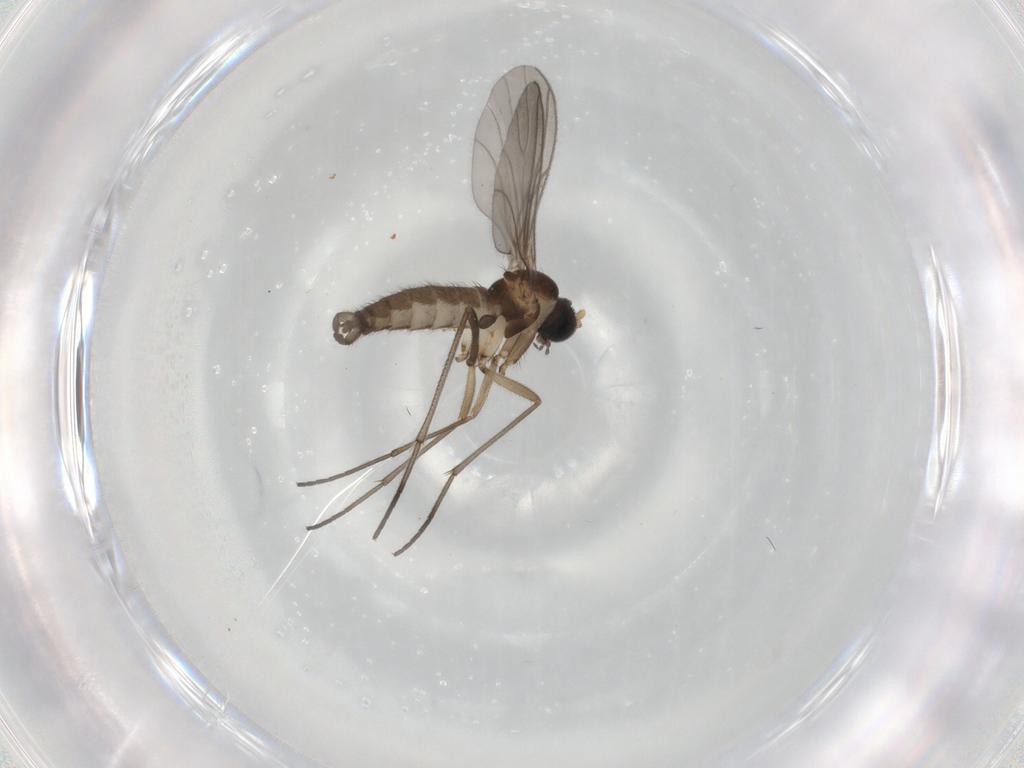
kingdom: Animalia
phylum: Arthropoda
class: Insecta
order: Diptera
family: Sciaridae
